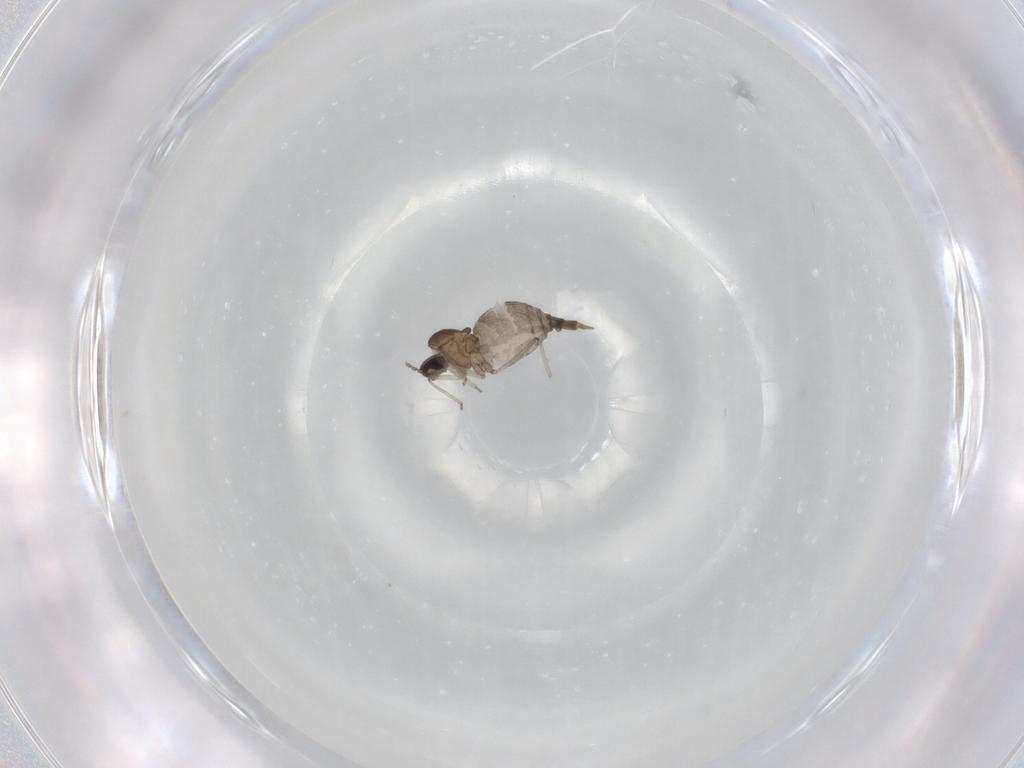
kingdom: Animalia
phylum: Arthropoda
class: Insecta
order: Diptera
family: Cecidomyiidae
